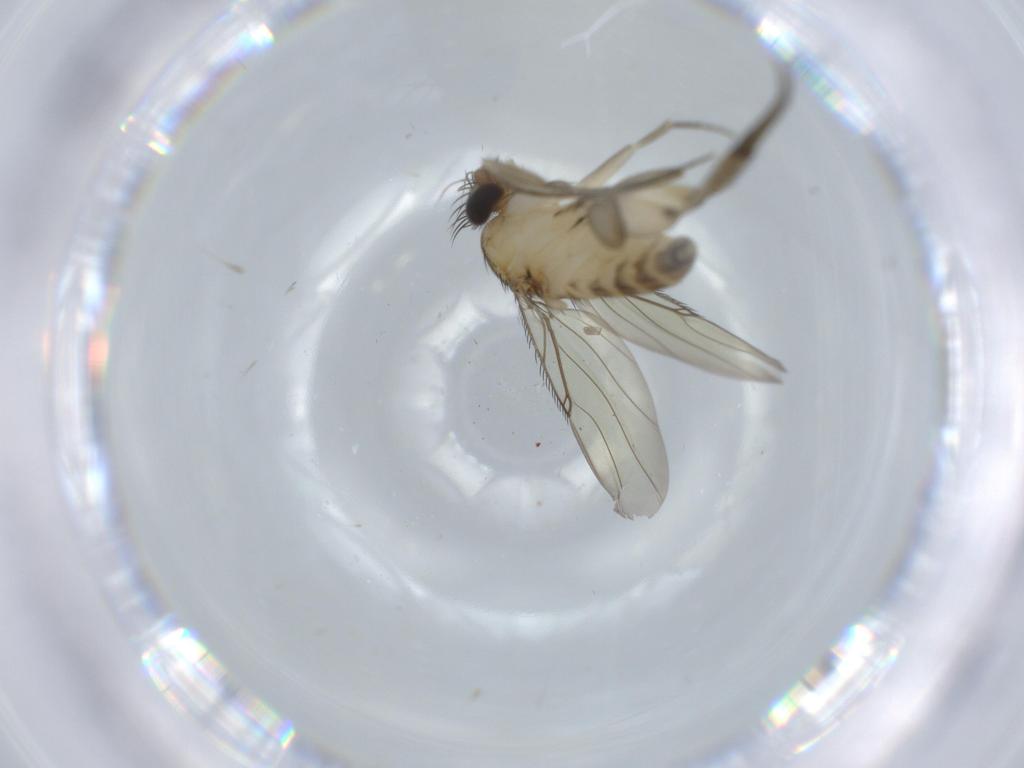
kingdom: Animalia
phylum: Arthropoda
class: Insecta
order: Diptera
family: Phoridae
